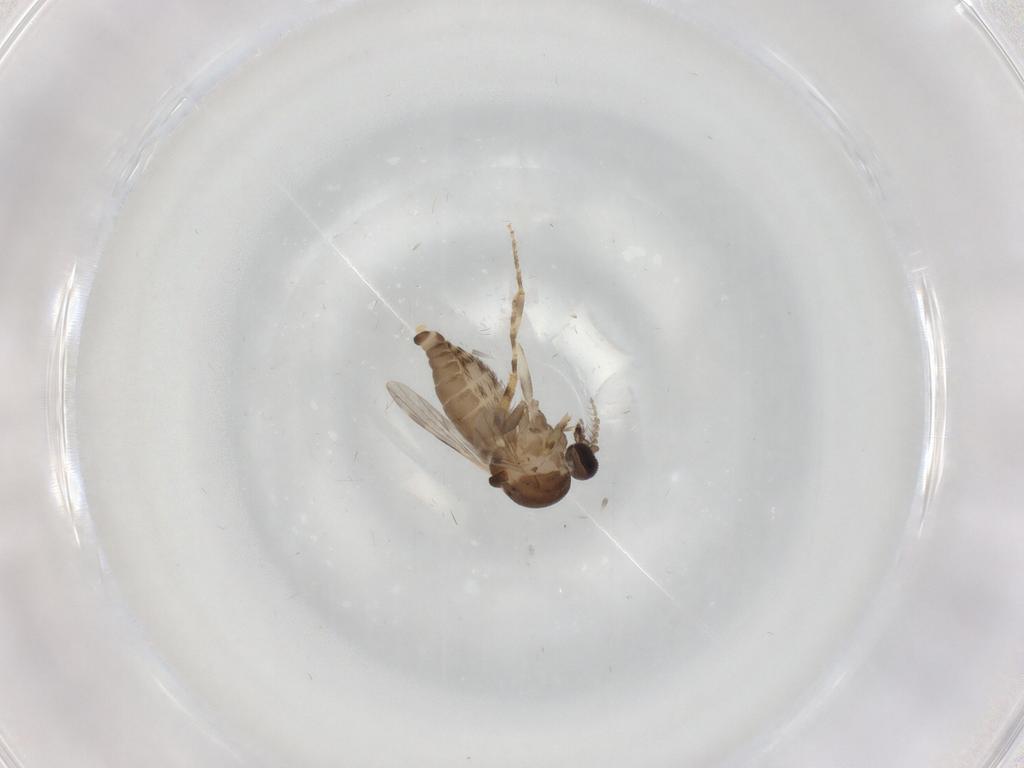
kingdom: Animalia
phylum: Arthropoda
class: Insecta
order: Diptera
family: Ceratopogonidae
